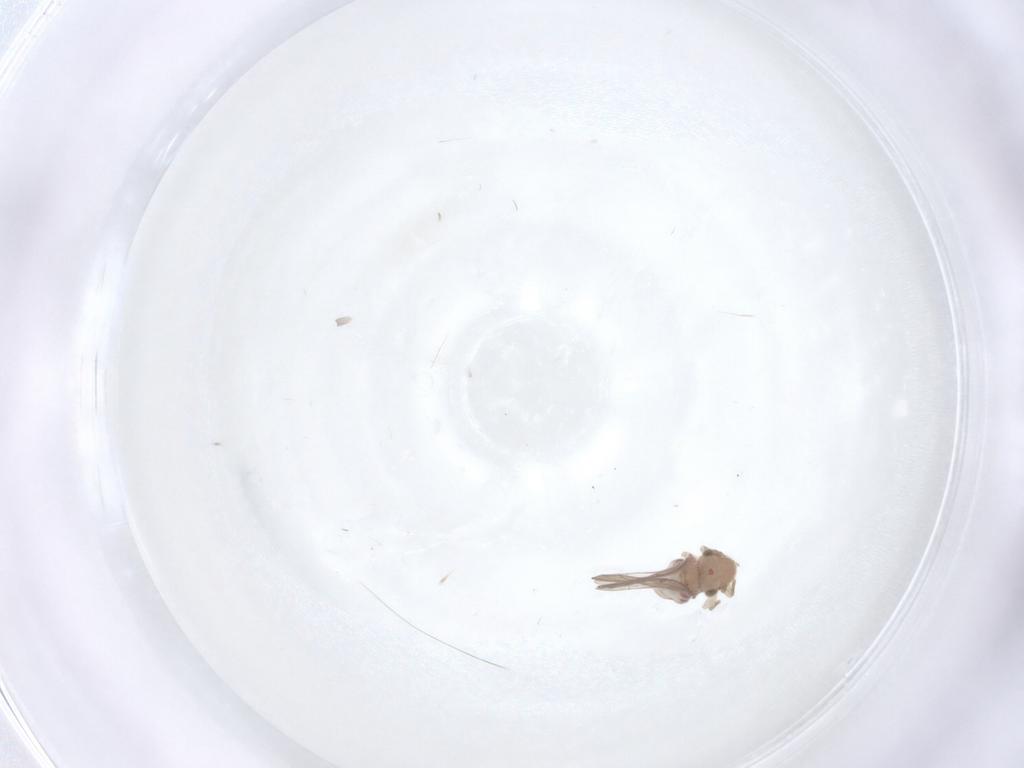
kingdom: Animalia
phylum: Arthropoda
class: Insecta
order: Psocodea
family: Ectopsocidae
